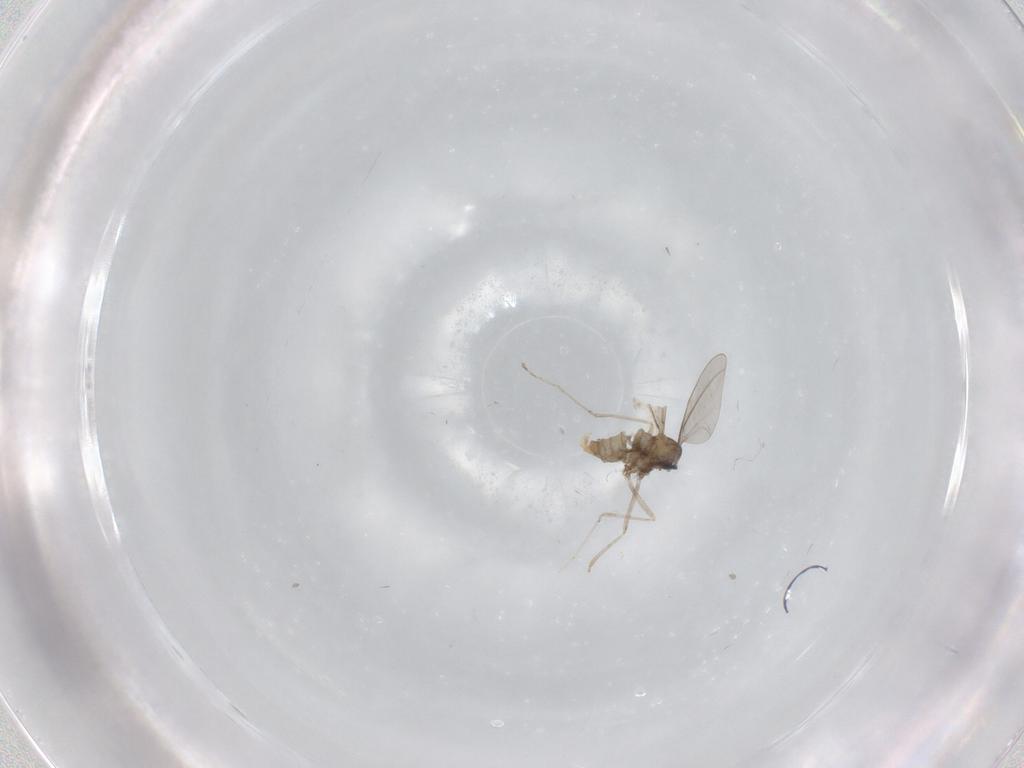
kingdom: Animalia
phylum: Arthropoda
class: Insecta
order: Diptera
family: Cecidomyiidae
